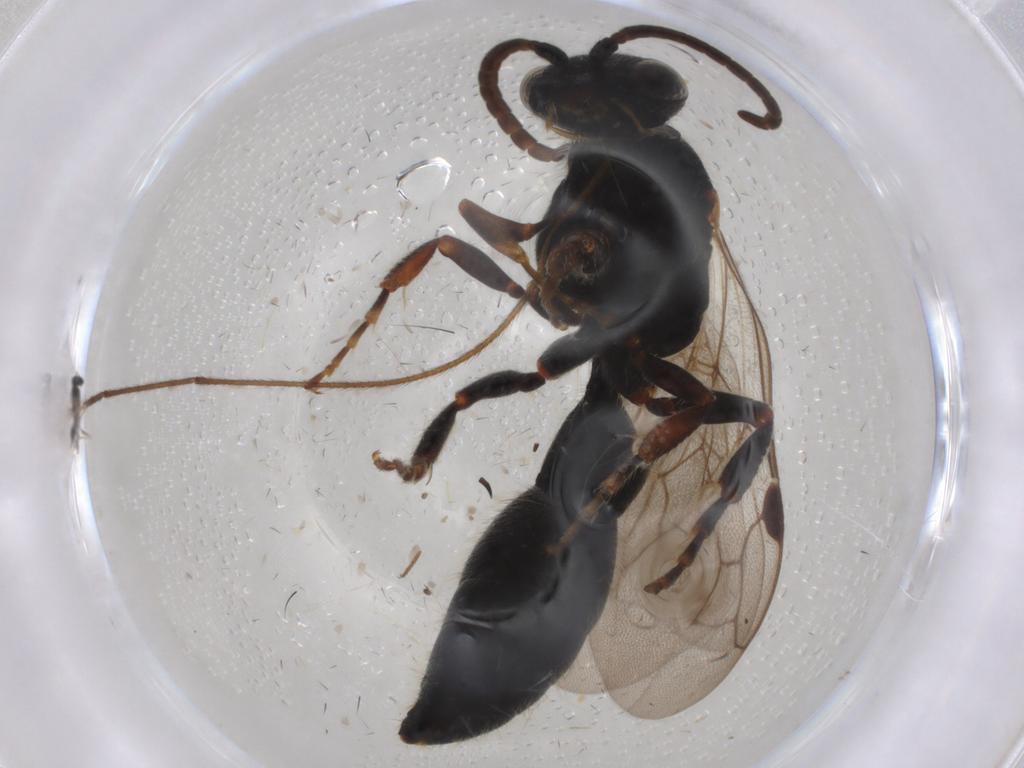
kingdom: Animalia
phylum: Arthropoda
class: Insecta
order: Hymenoptera
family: Tiphiidae
